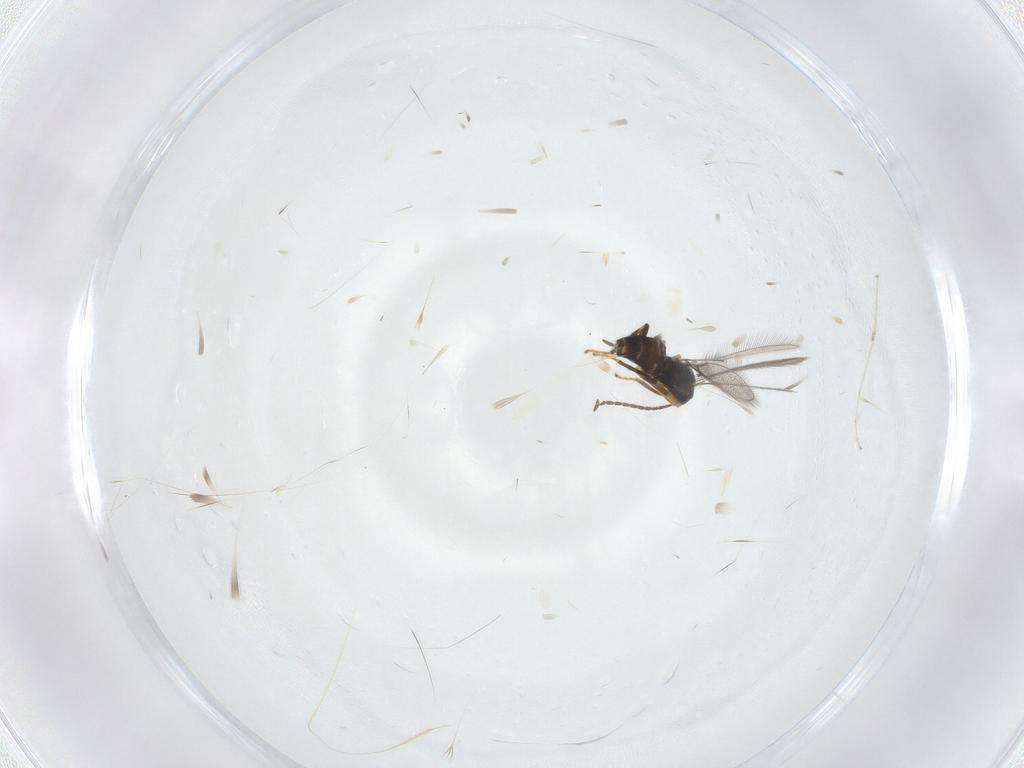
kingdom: Animalia
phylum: Arthropoda
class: Insecta
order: Hymenoptera
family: Mymaridae
